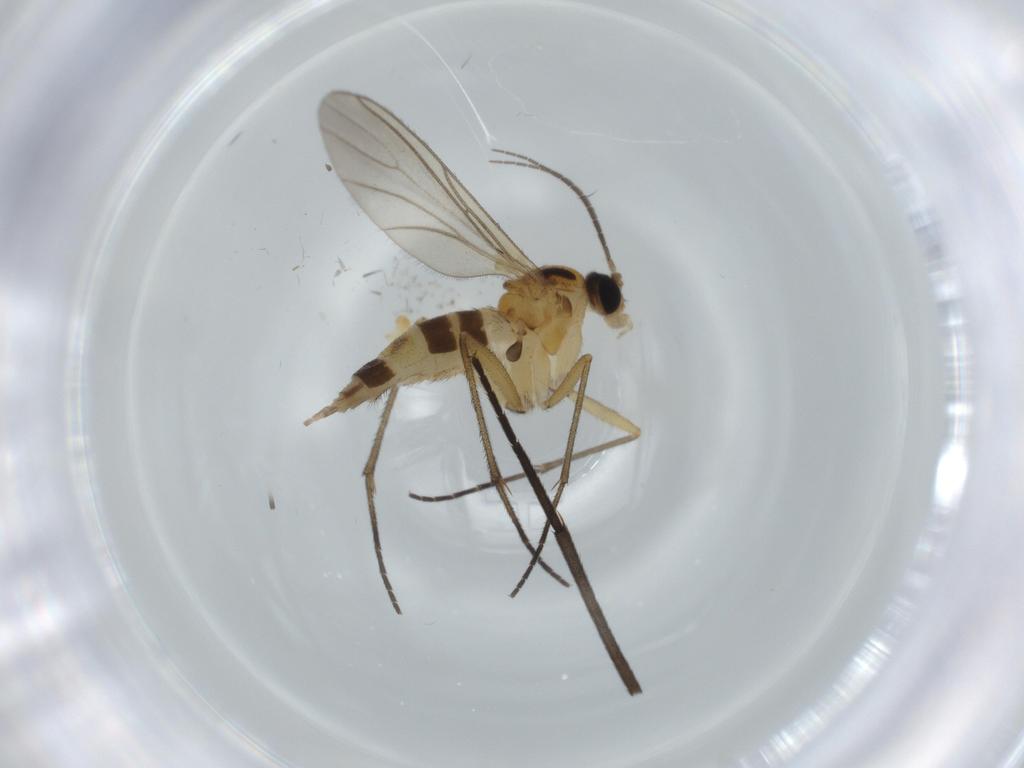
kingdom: Animalia
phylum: Arthropoda
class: Insecta
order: Diptera
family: Sciaridae
